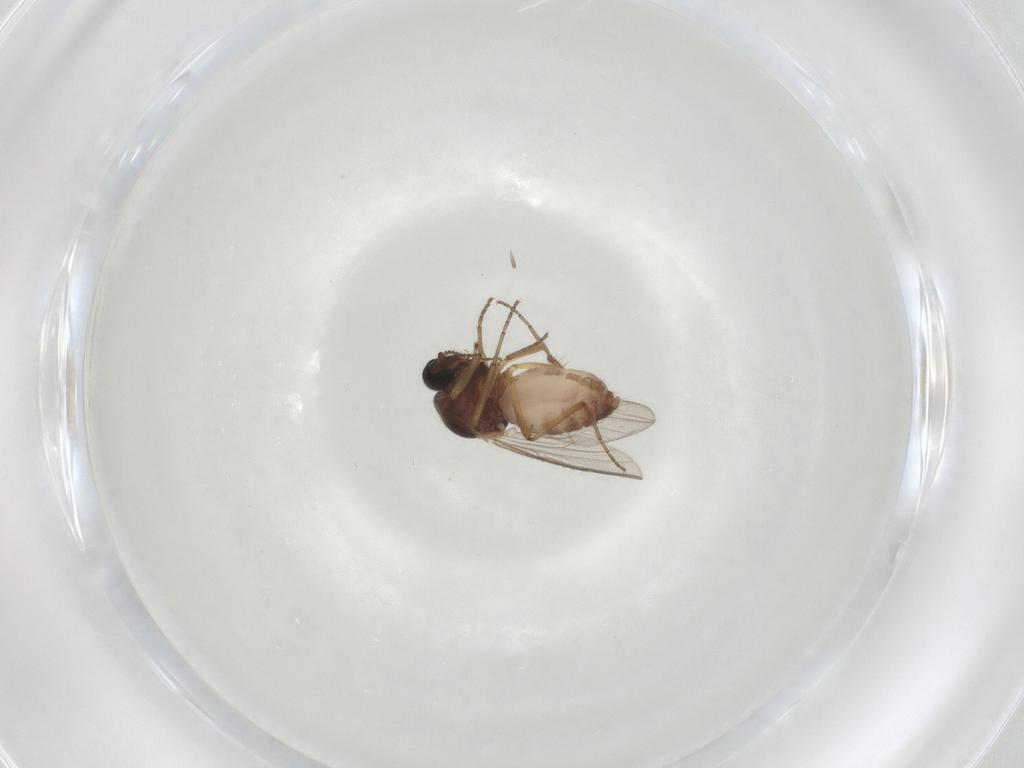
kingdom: Animalia
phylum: Arthropoda
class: Insecta
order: Diptera
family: Ceratopogonidae
